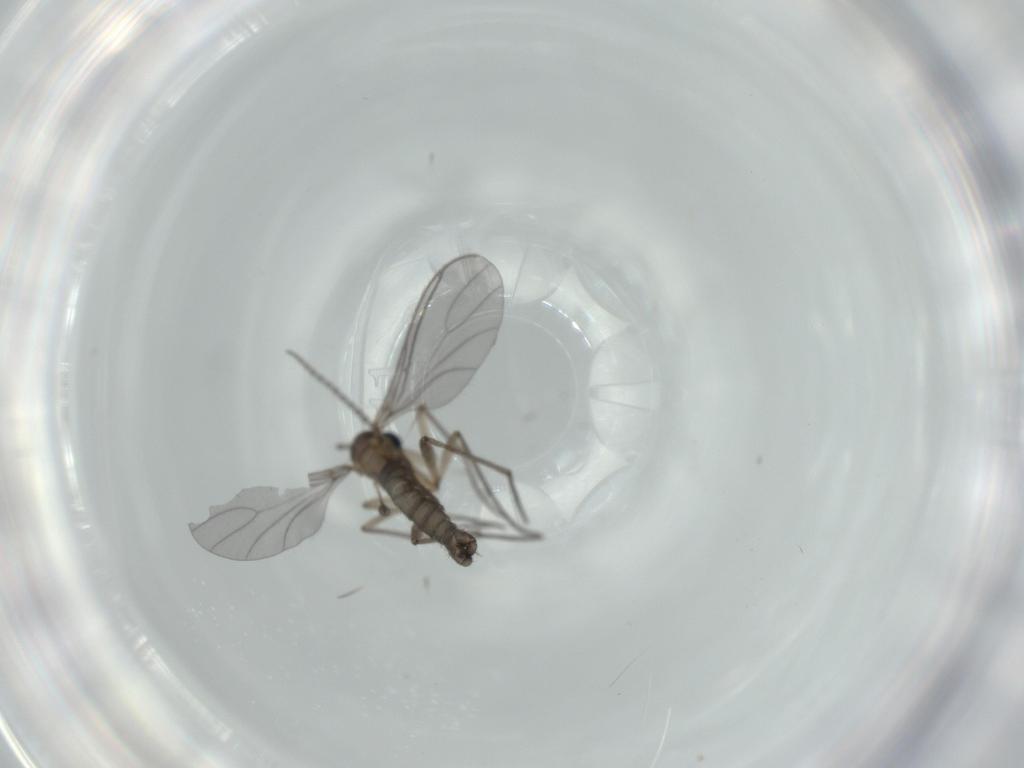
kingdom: Animalia
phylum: Arthropoda
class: Insecta
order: Diptera
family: Sciaridae
